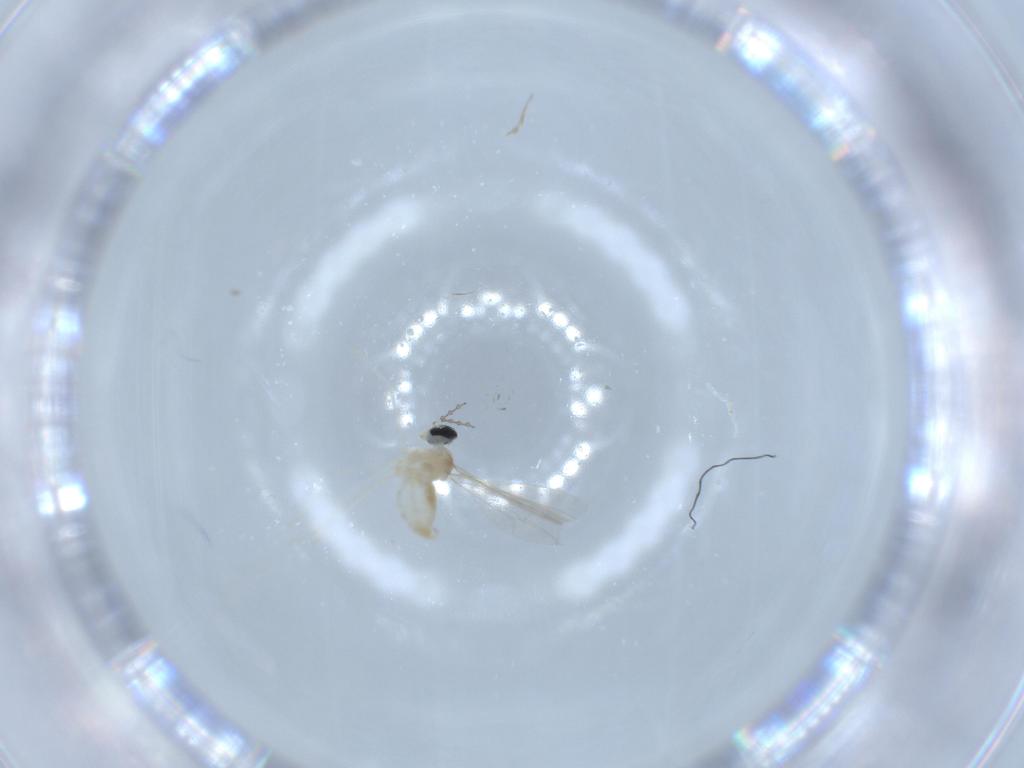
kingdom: Animalia
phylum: Arthropoda
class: Insecta
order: Diptera
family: Cecidomyiidae
